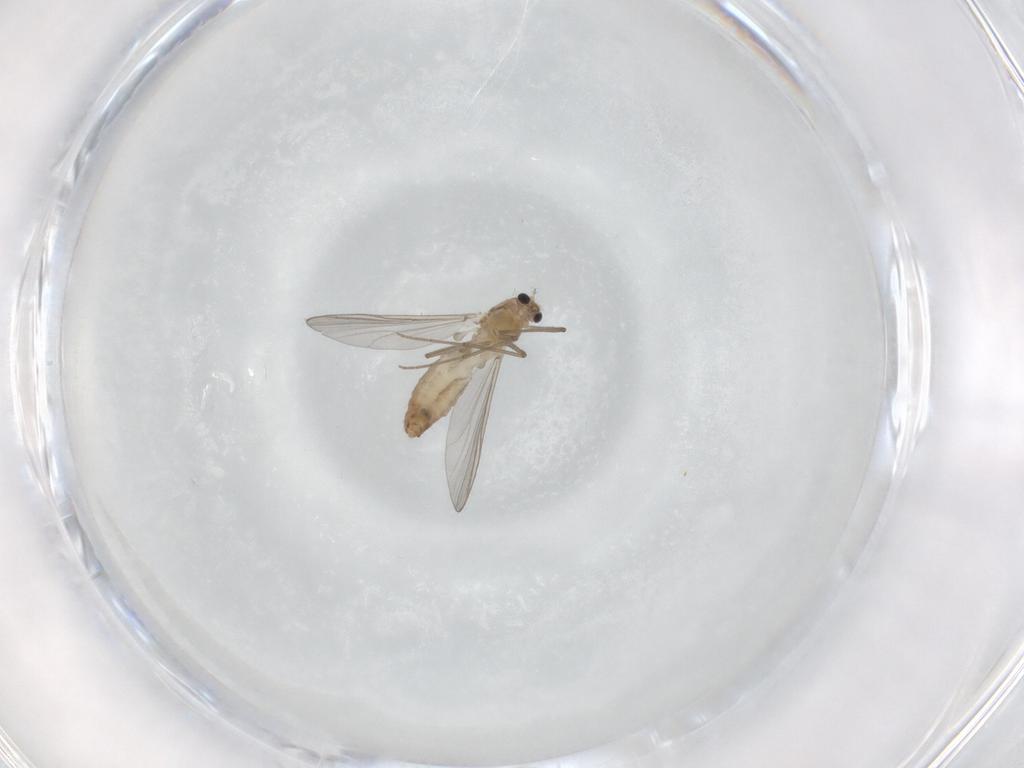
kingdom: Animalia
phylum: Arthropoda
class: Insecta
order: Diptera
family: Chironomidae
